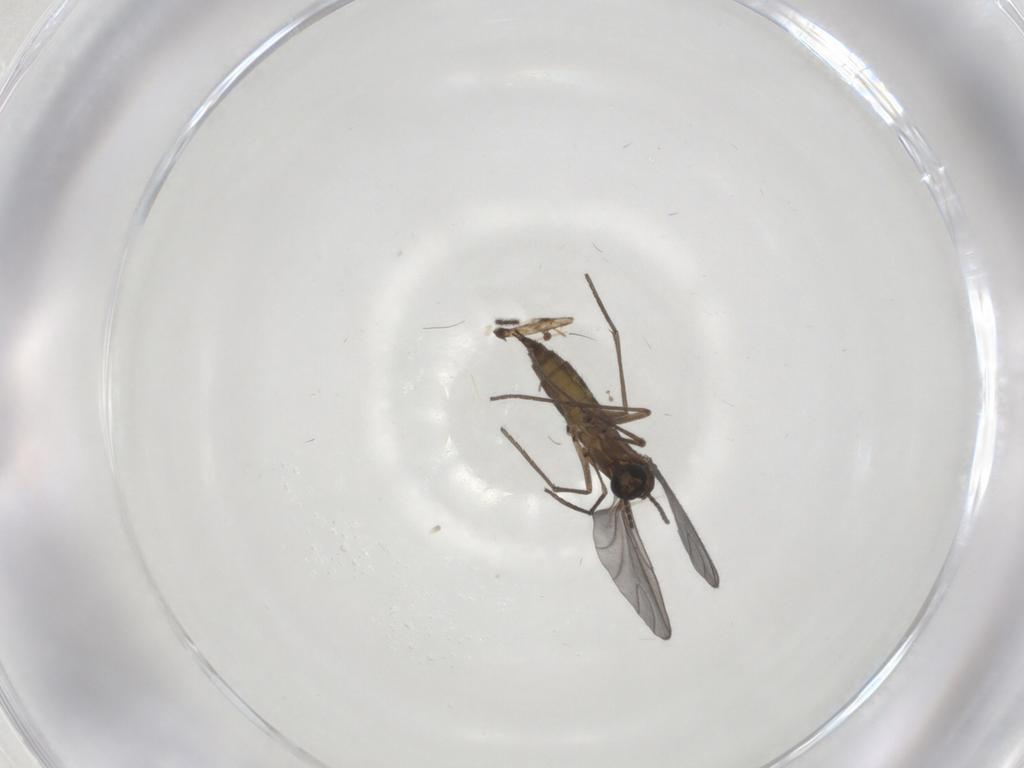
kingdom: Animalia
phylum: Arthropoda
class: Insecta
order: Diptera
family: Sciaridae
